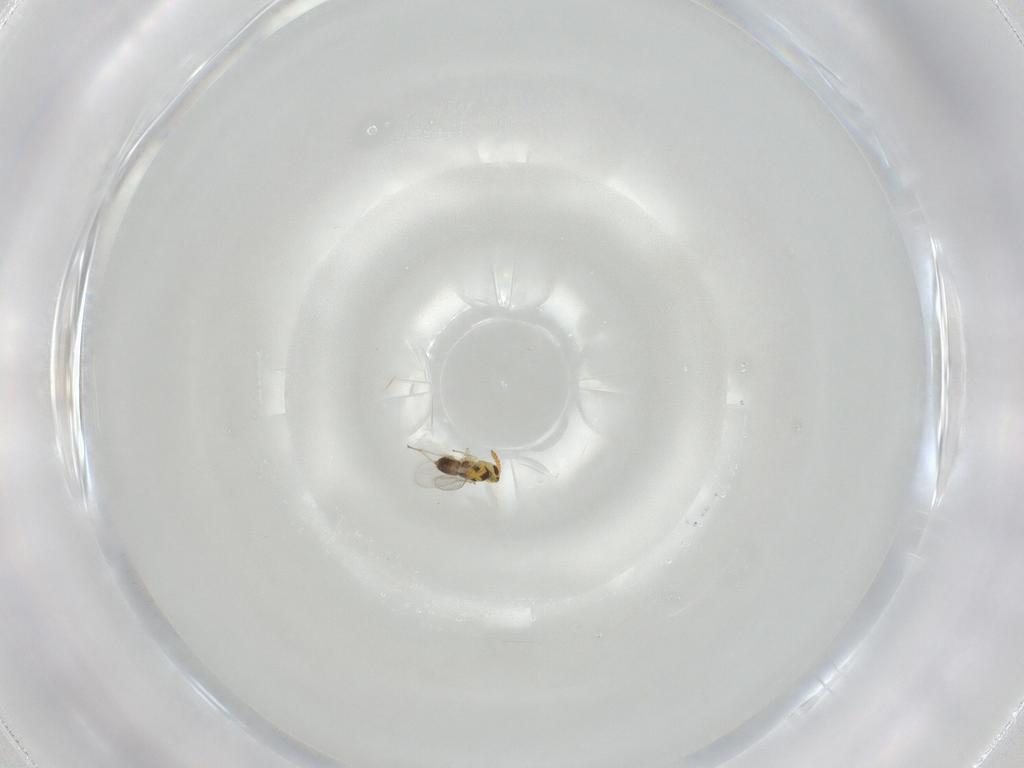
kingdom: Animalia
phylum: Arthropoda
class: Insecta
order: Hymenoptera
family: Aphelinidae
